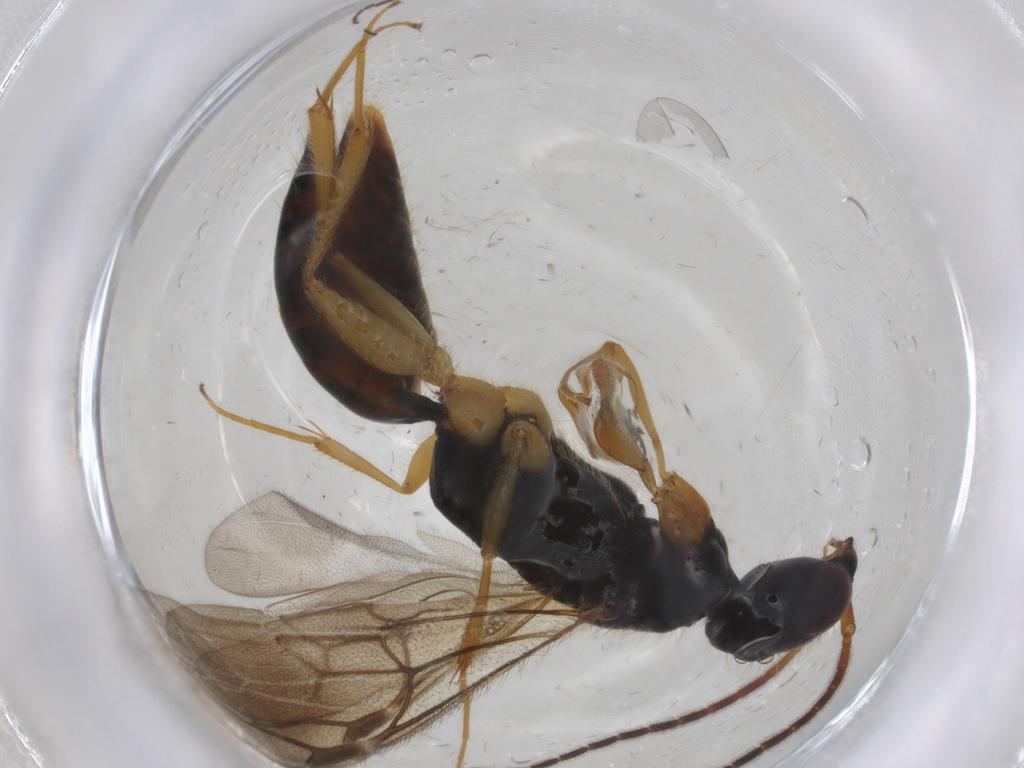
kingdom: Animalia
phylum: Arthropoda
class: Insecta
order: Hymenoptera
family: Bethylidae
